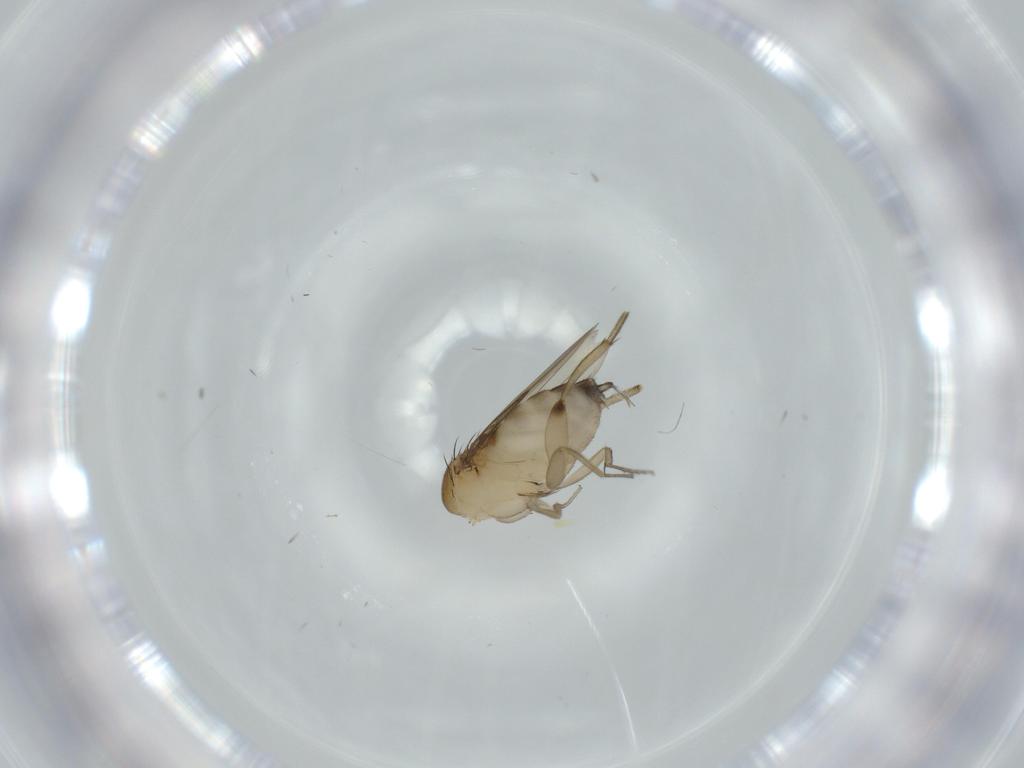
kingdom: Animalia
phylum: Arthropoda
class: Insecta
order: Diptera
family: Phoridae
